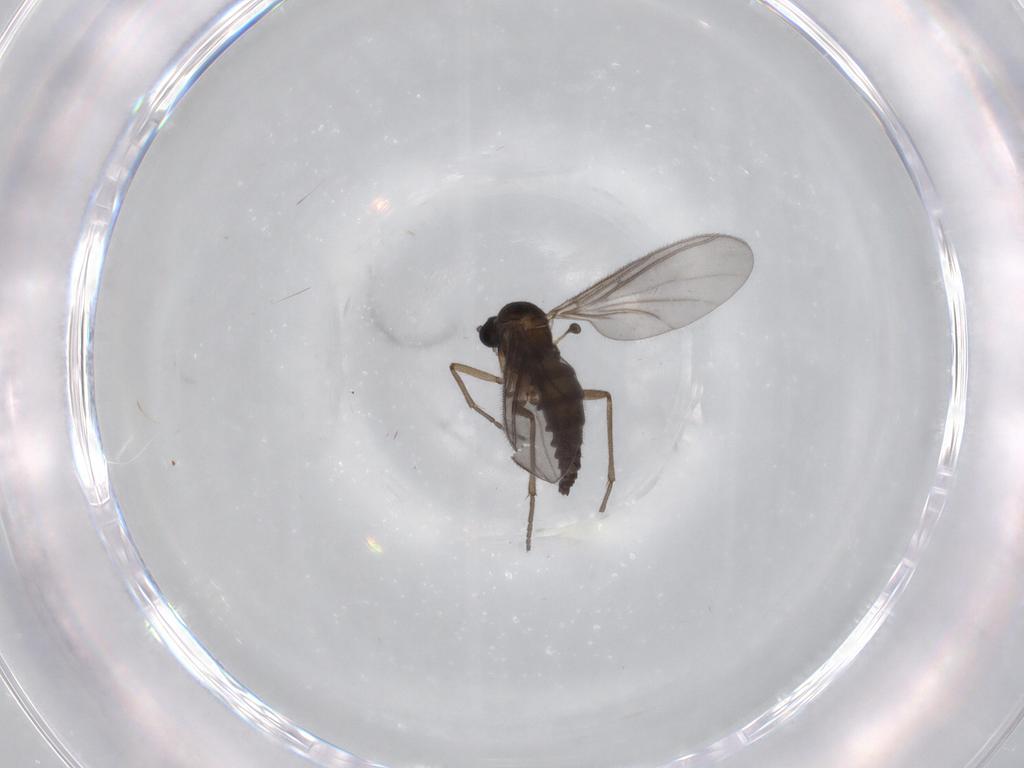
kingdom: Animalia
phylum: Arthropoda
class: Insecta
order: Diptera
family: Sciaridae
